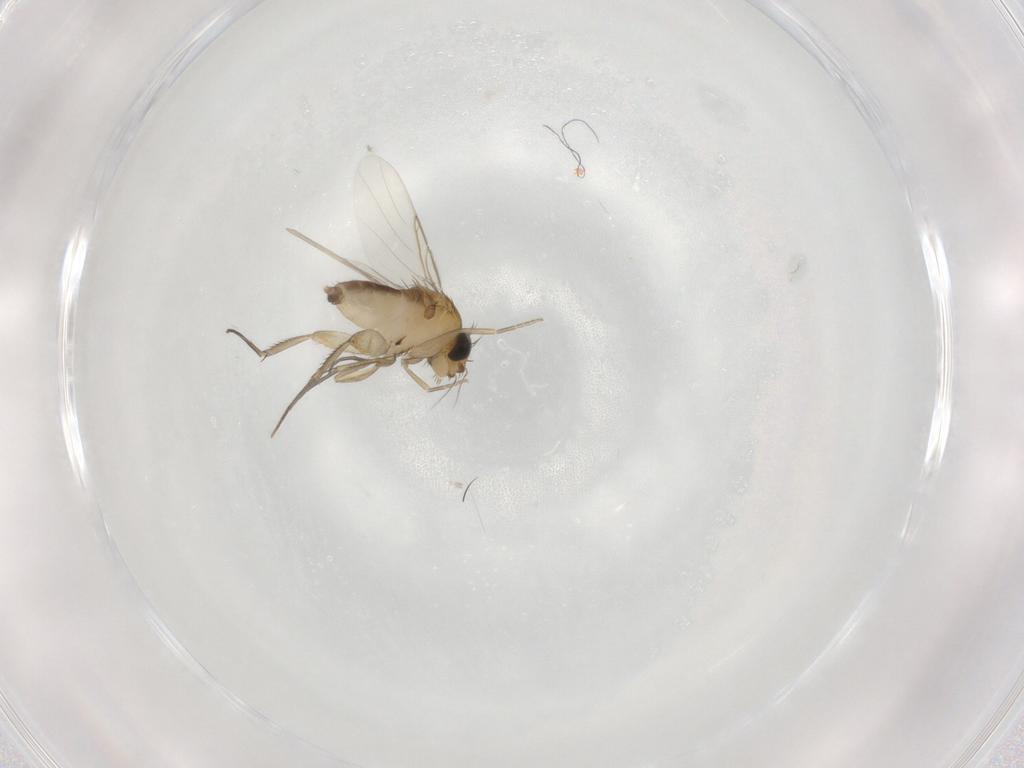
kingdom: Animalia
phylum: Arthropoda
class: Insecta
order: Diptera
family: Phoridae
